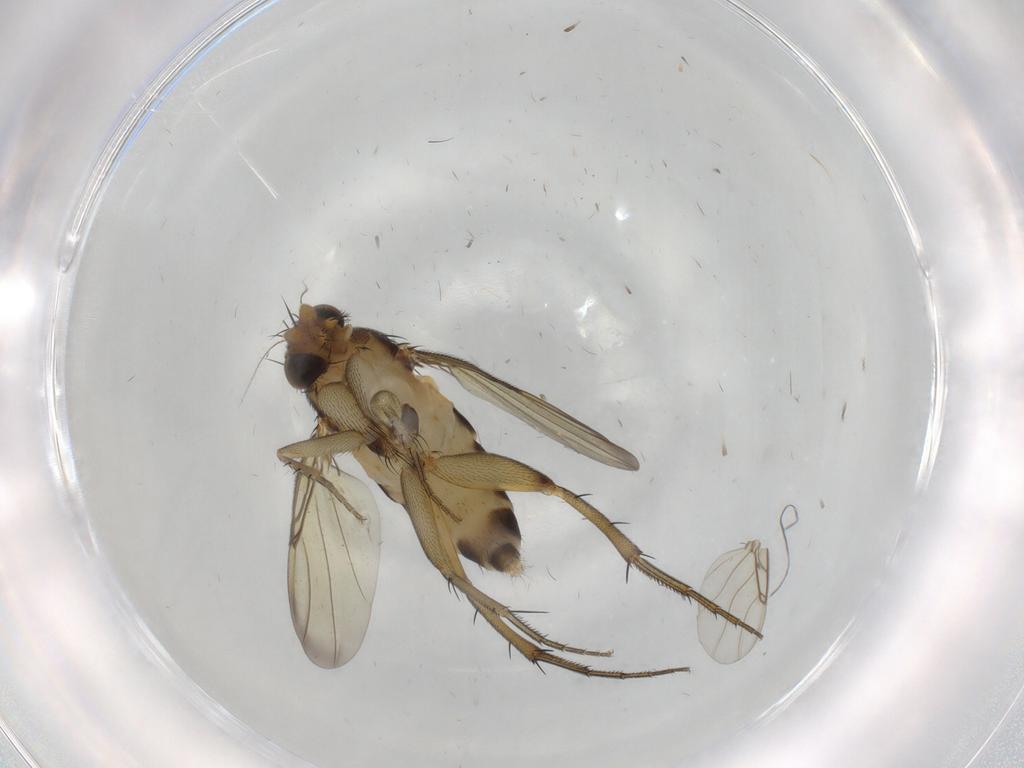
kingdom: Animalia
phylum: Arthropoda
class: Insecta
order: Diptera
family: Phoridae
